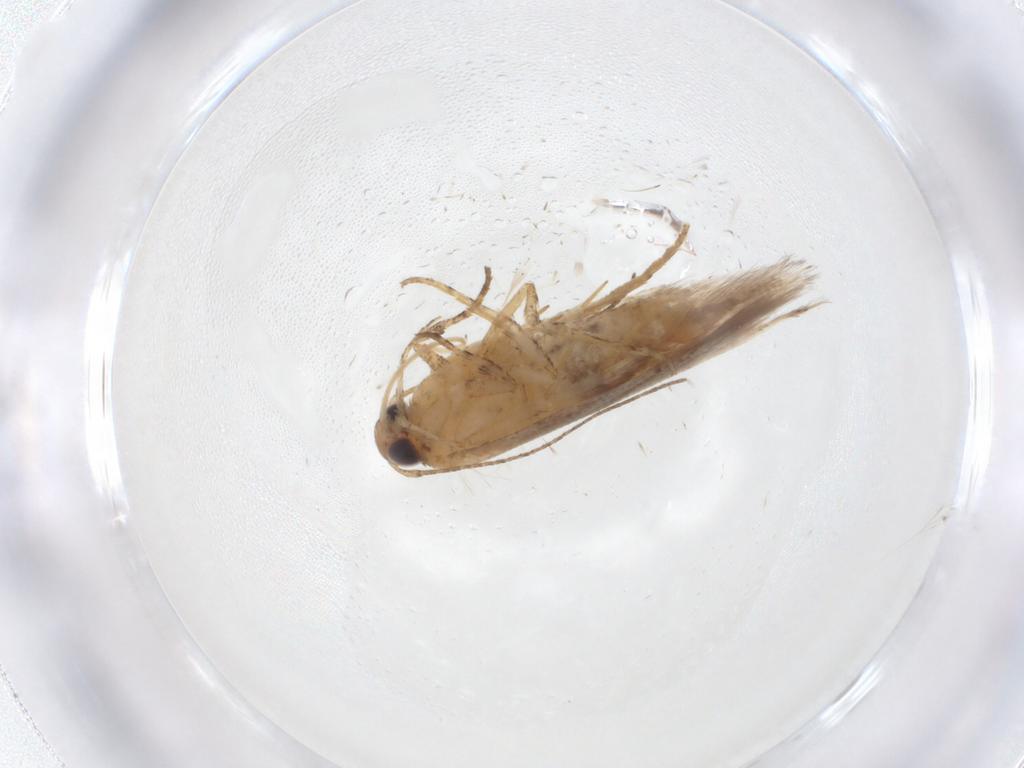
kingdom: Animalia
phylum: Arthropoda
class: Insecta
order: Lepidoptera
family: Gelechiidae
